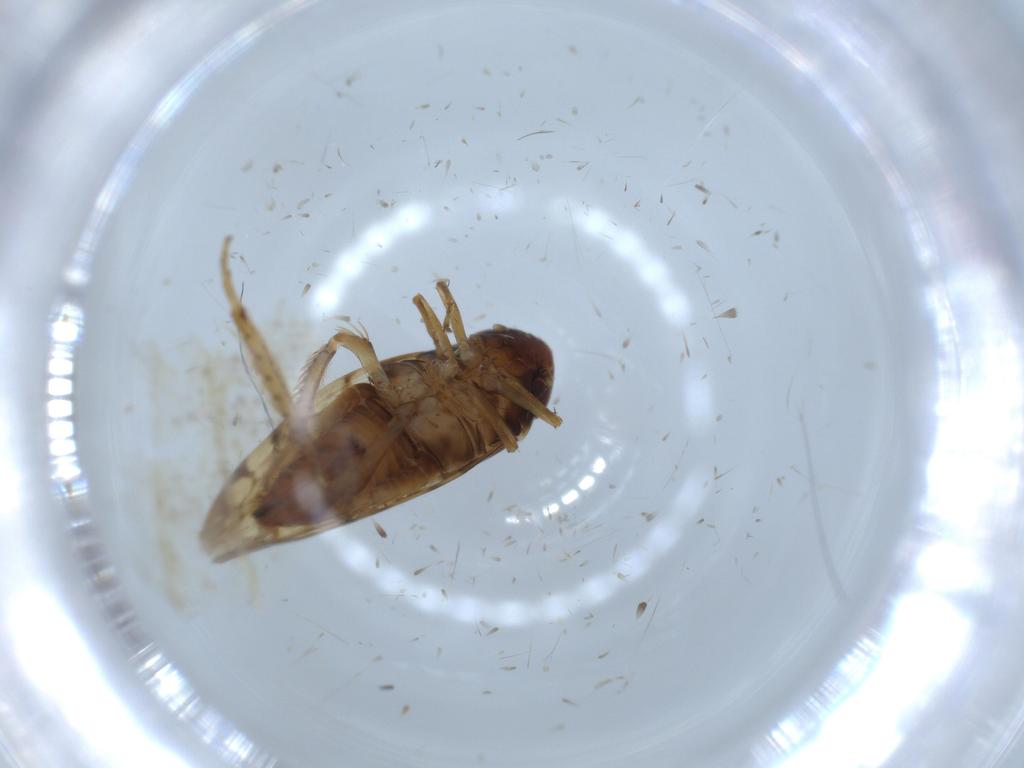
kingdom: Animalia
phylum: Arthropoda
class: Insecta
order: Hemiptera
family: Cicadellidae
